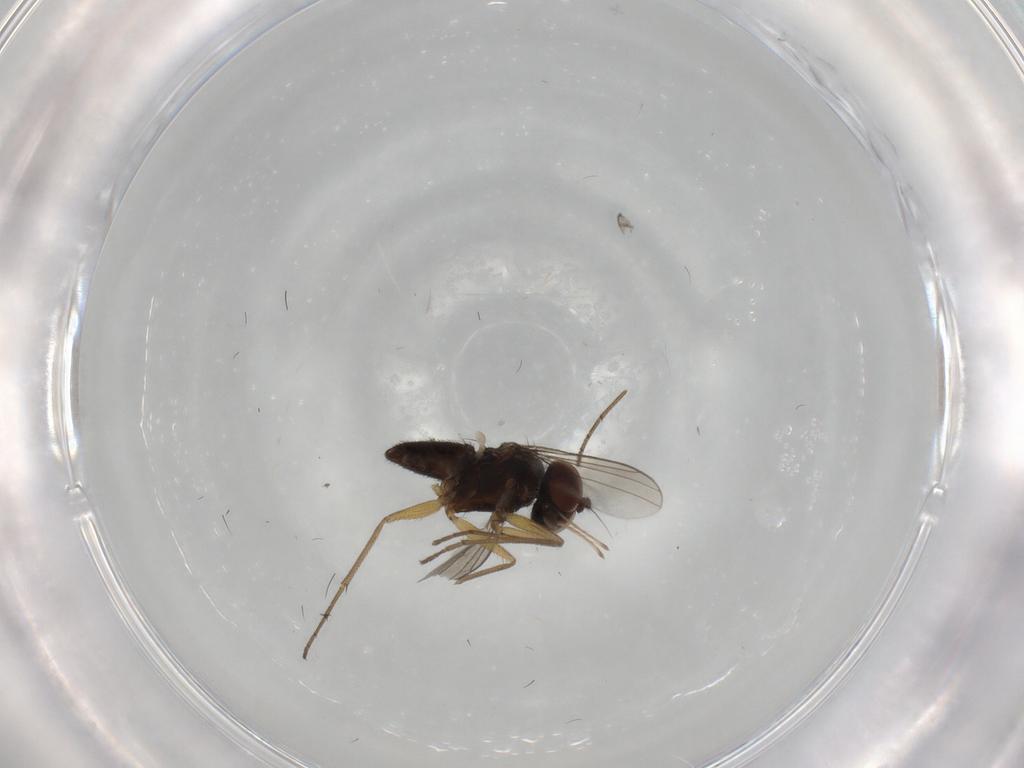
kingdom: Animalia
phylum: Arthropoda
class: Insecta
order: Diptera
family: Dolichopodidae
